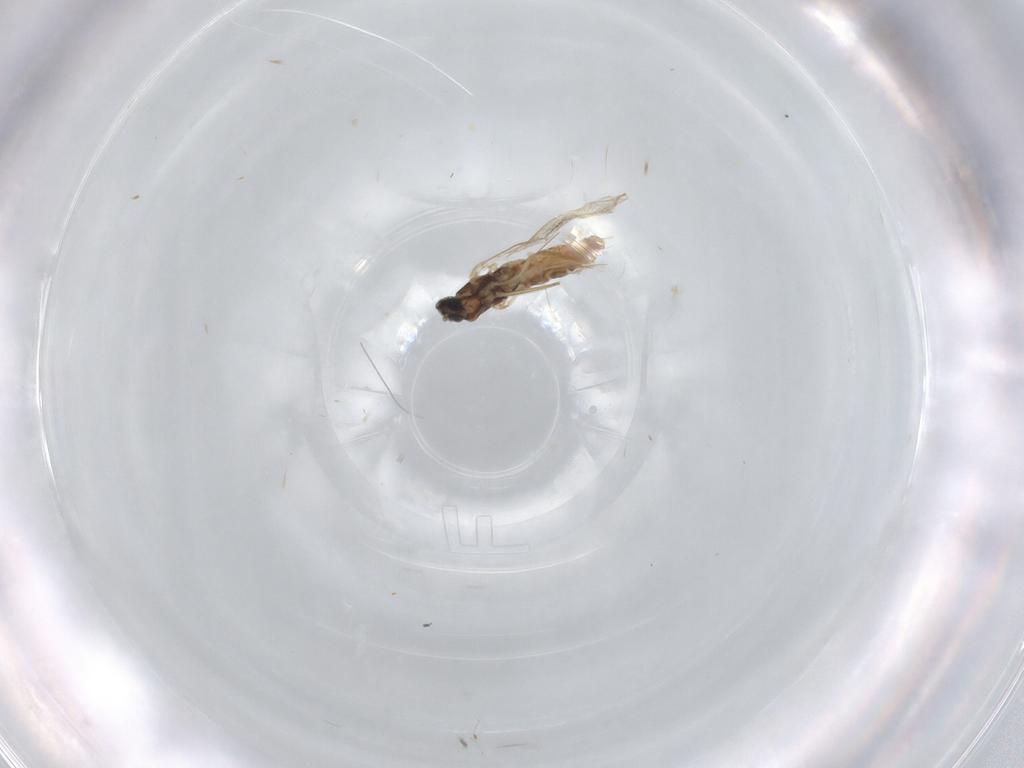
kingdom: Animalia
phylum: Arthropoda
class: Insecta
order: Diptera
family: Cecidomyiidae
